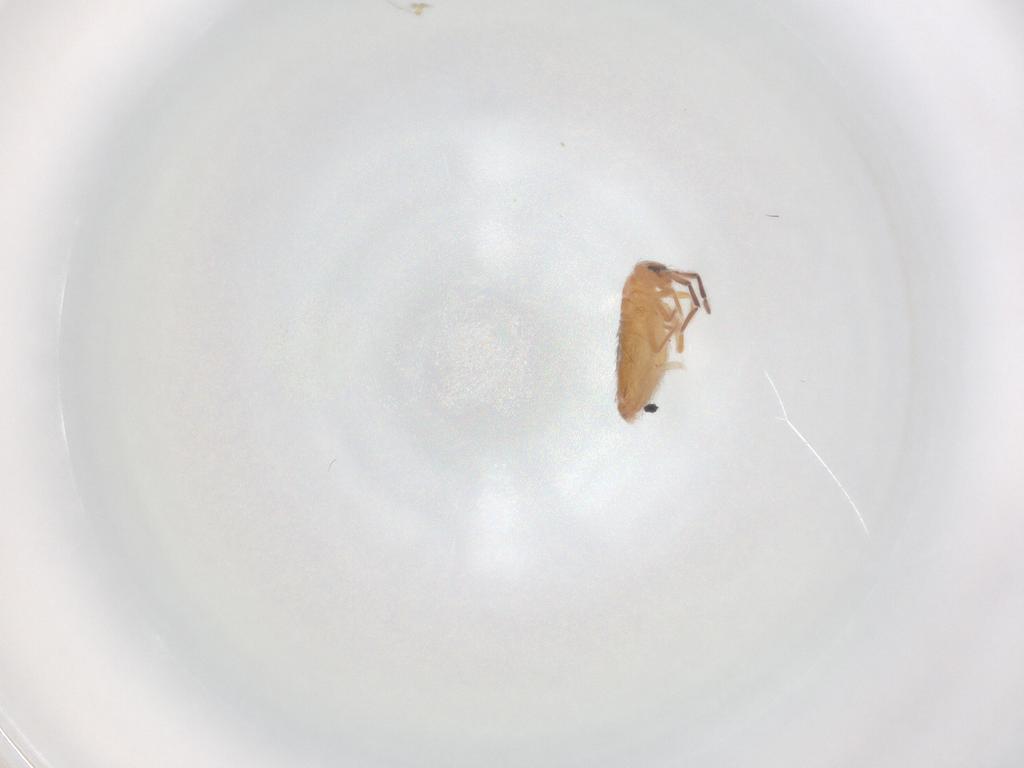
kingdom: Animalia
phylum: Arthropoda
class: Collembola
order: Entomobryomorpha
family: Entomobryidae
